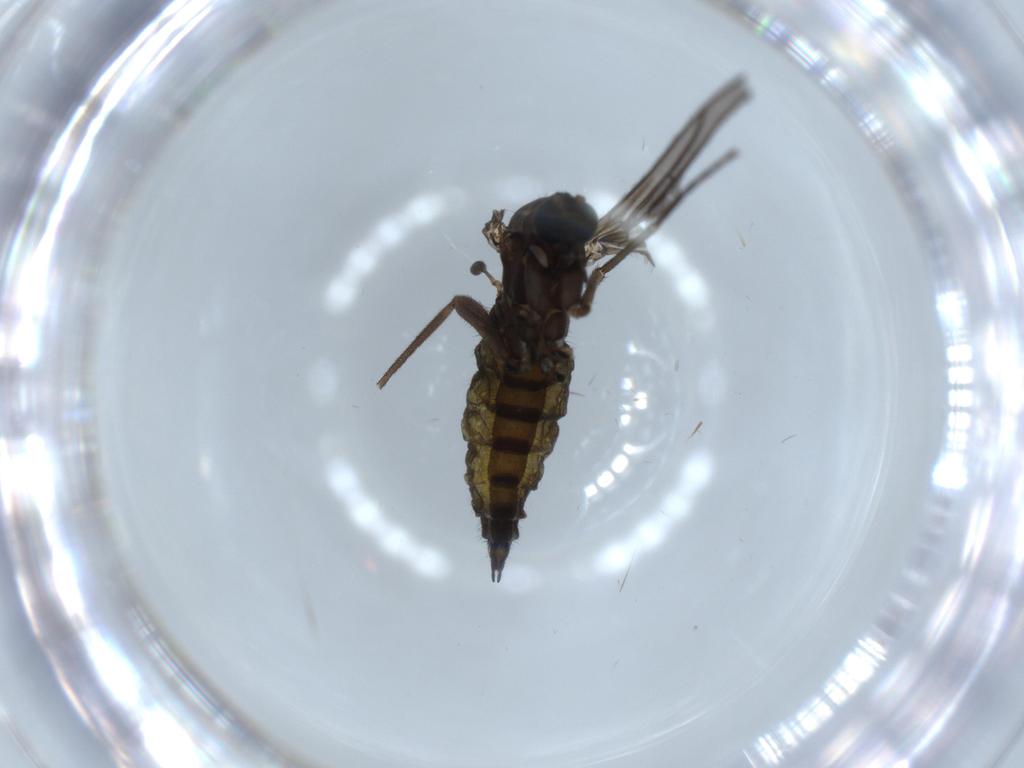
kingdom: Animalia
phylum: Arthropoda
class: Insecta
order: Diptera
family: Sciaridae
